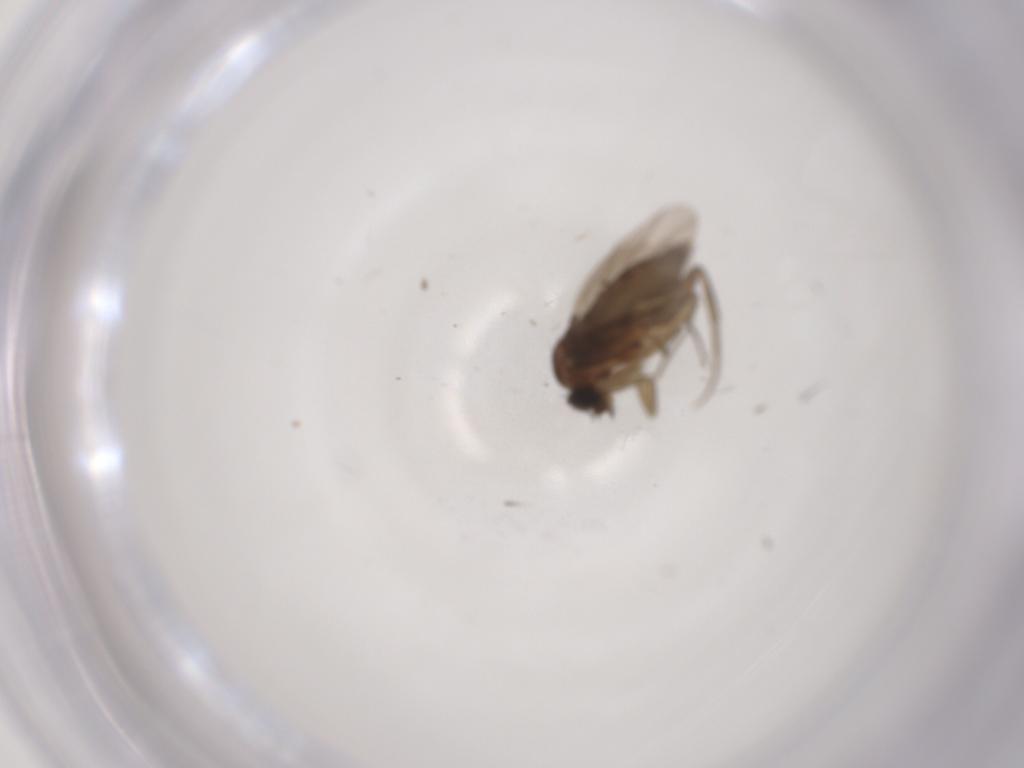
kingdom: Animalia
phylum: Arthropoda
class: Insecta
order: Diptera
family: Phoridae
